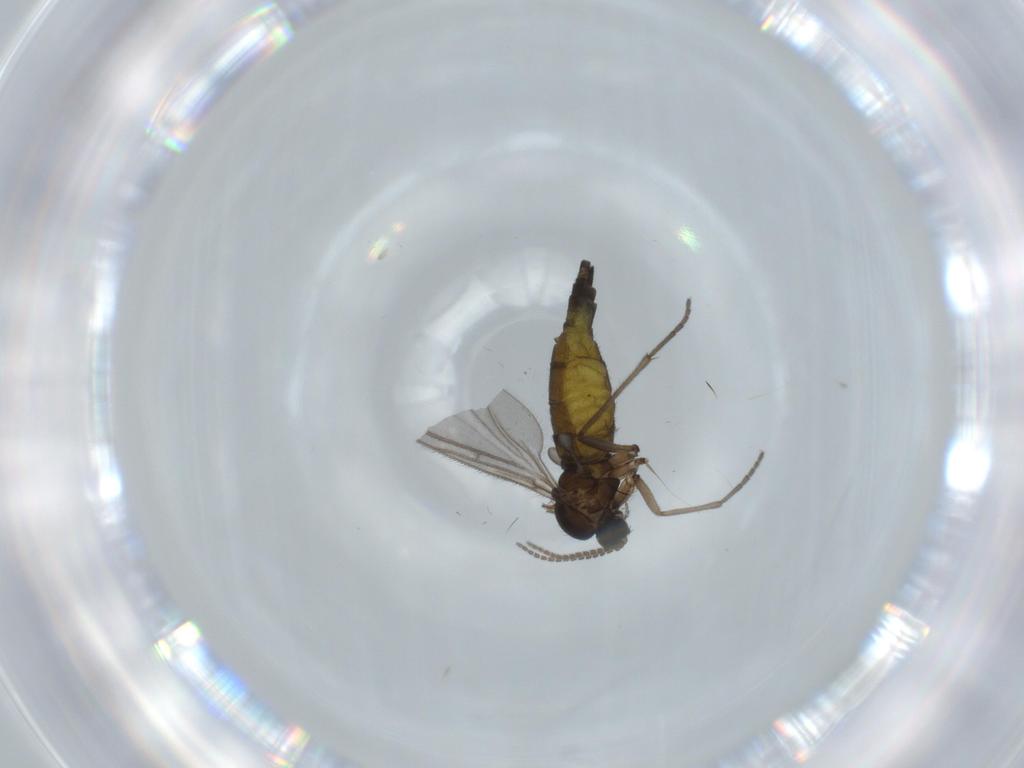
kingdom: Animalia
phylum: Arthropoda
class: Insecta
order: Diptera
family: Sciaridae
